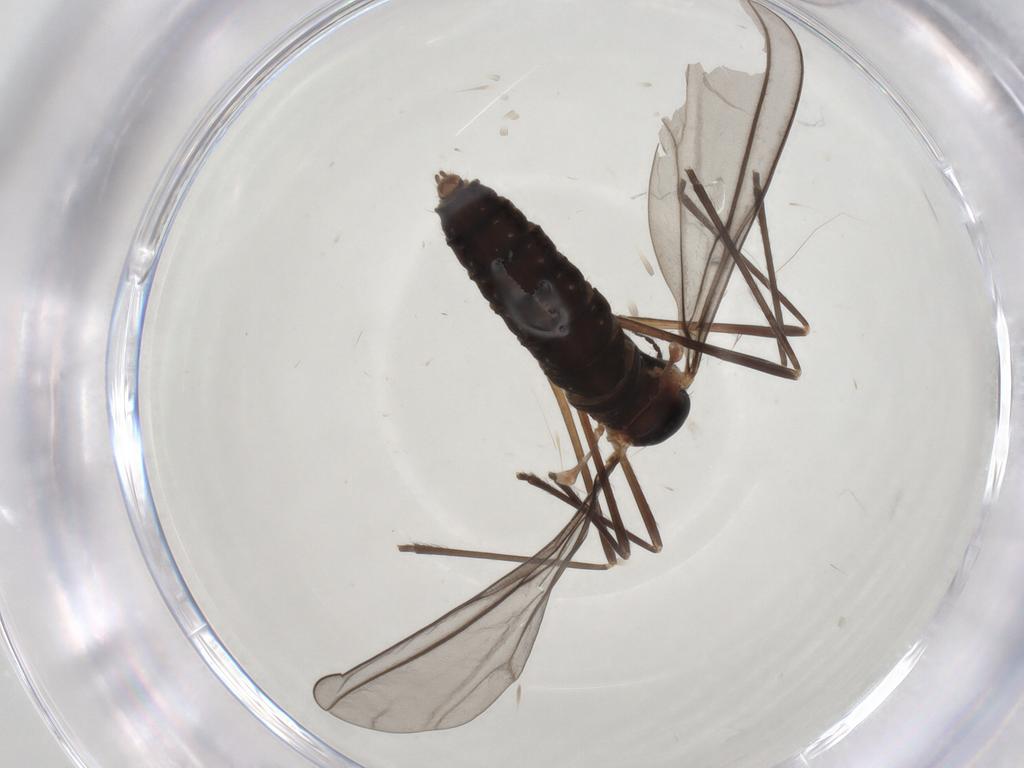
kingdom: Animalia
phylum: Arthropoda
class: Insecta
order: Diptera
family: Cecidomyiidae
